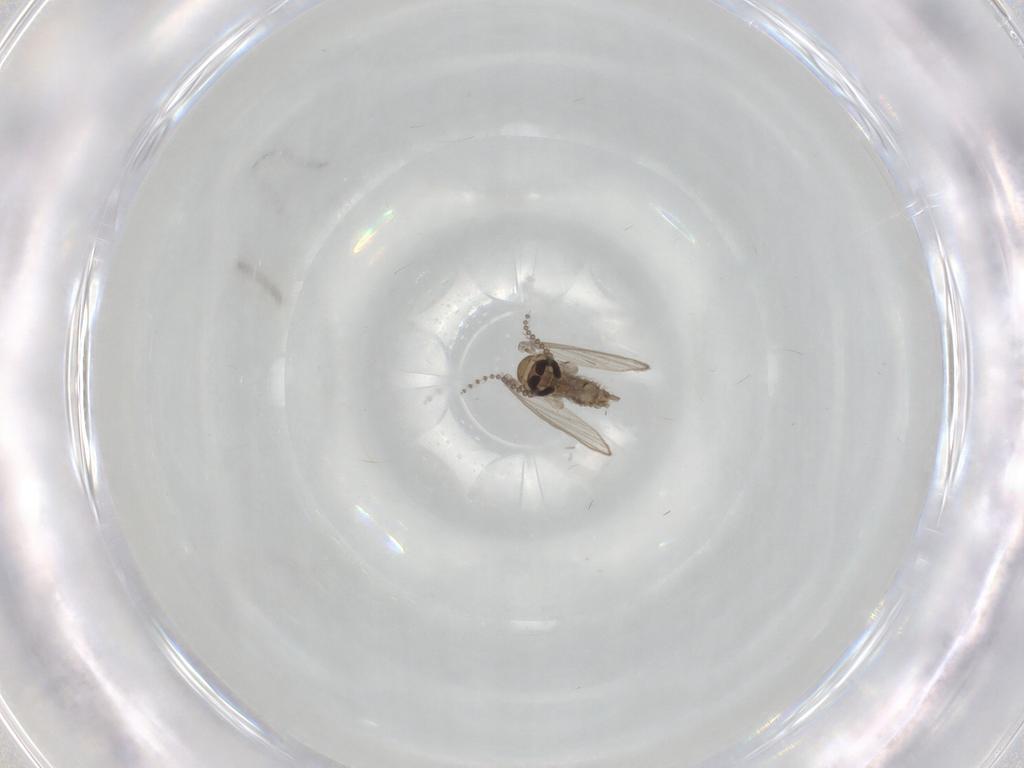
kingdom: Animalia
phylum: Arthropoda
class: Insecta
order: Diptera
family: Psychodidae
